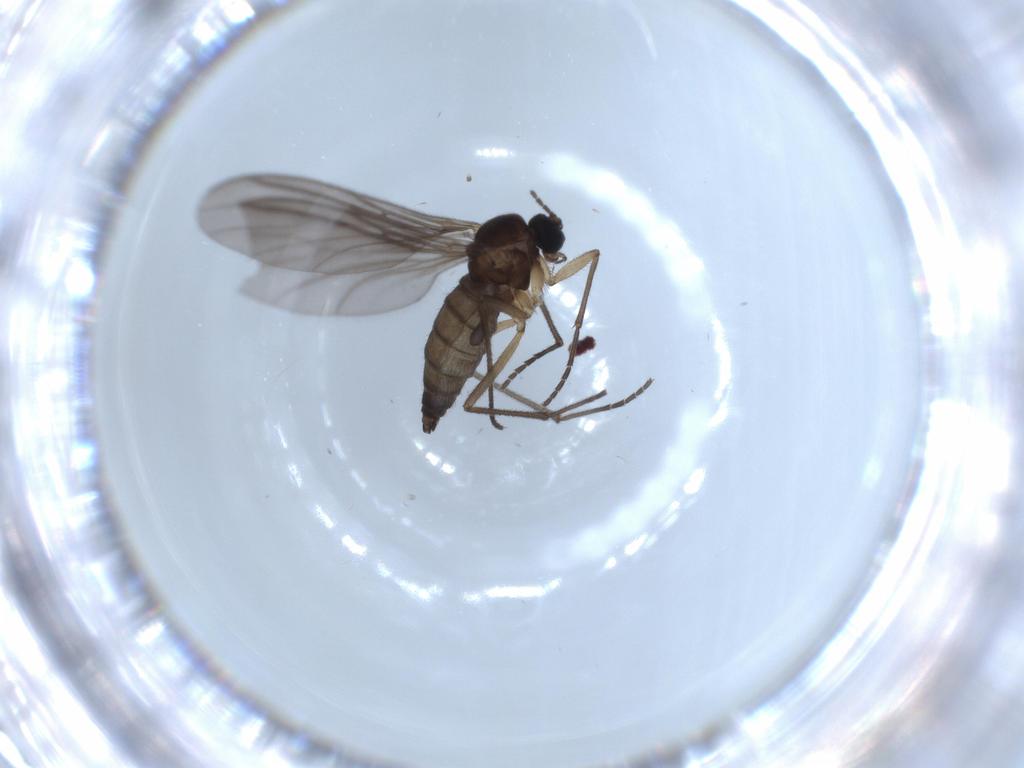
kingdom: Animalia
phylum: Arthropoda
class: Insecta
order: Diptera
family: Sciaridae
